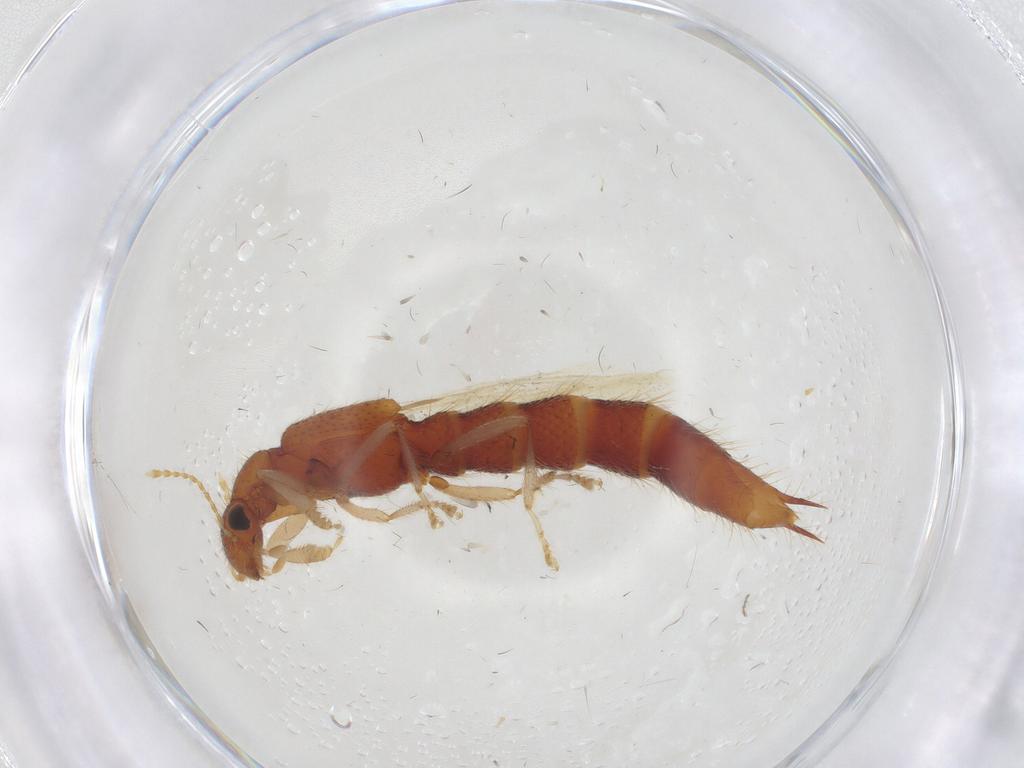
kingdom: Animalia
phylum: Arthropoda
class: Insecta
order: Coleoptera
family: Staphylinidae
